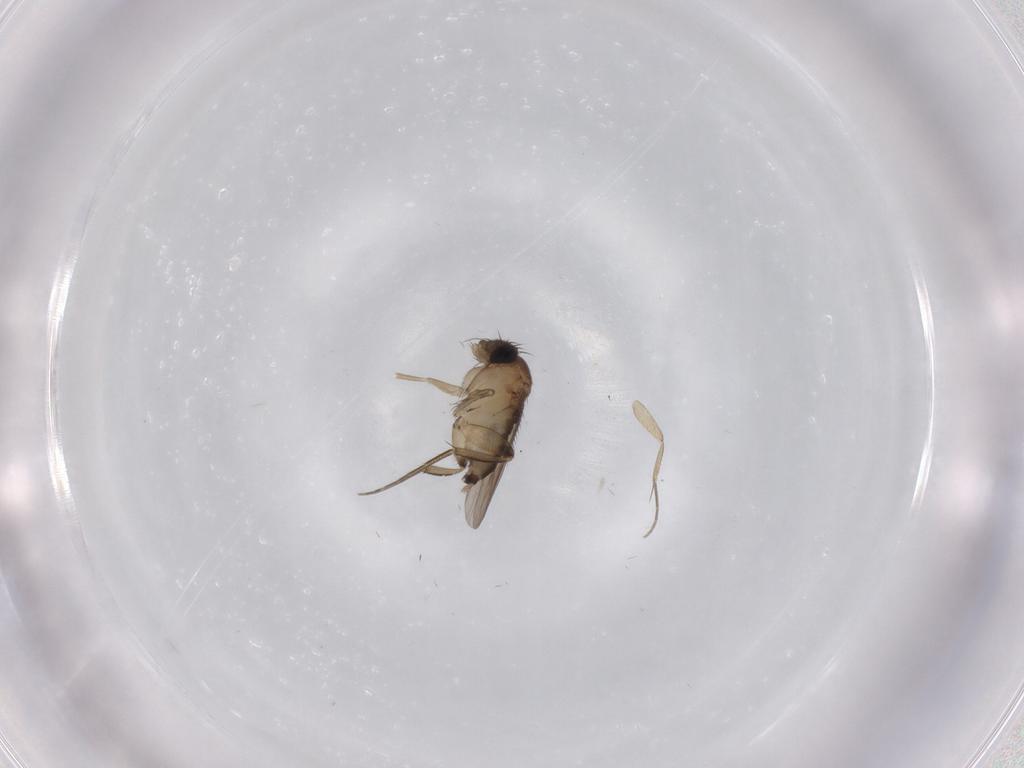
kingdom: Animalia
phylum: Arthropoda
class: Insecta
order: Diptera
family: Phoridae
